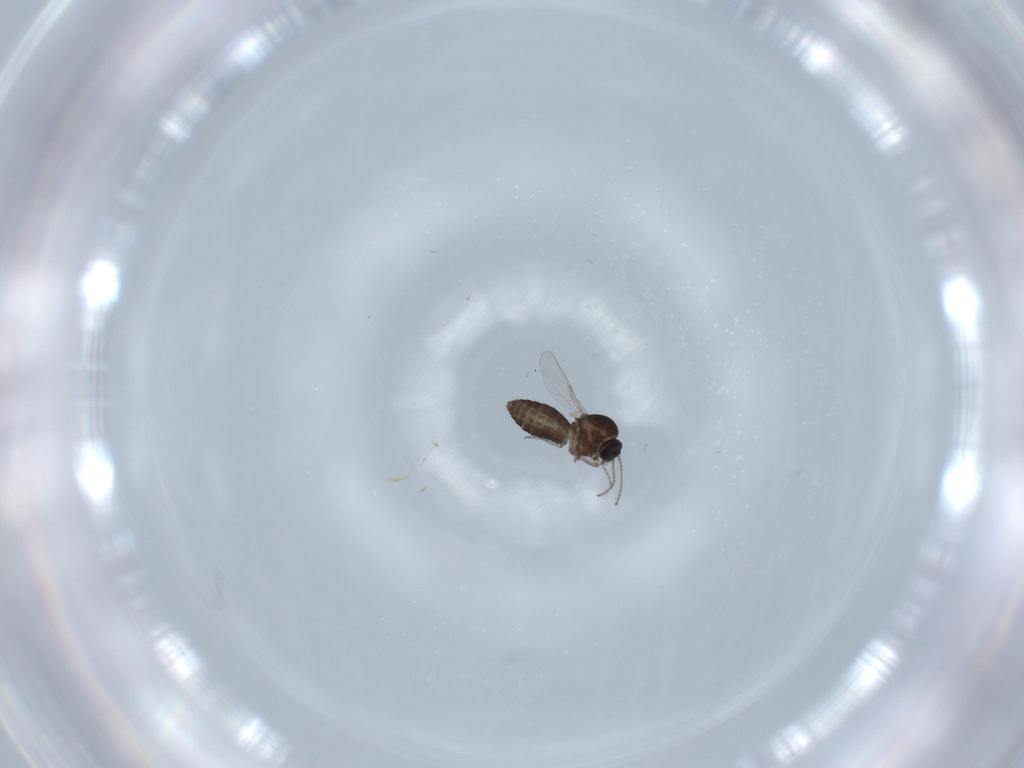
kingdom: Animalia
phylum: Arthropoda
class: Insecta
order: Diptera
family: Ceratopogonidae
